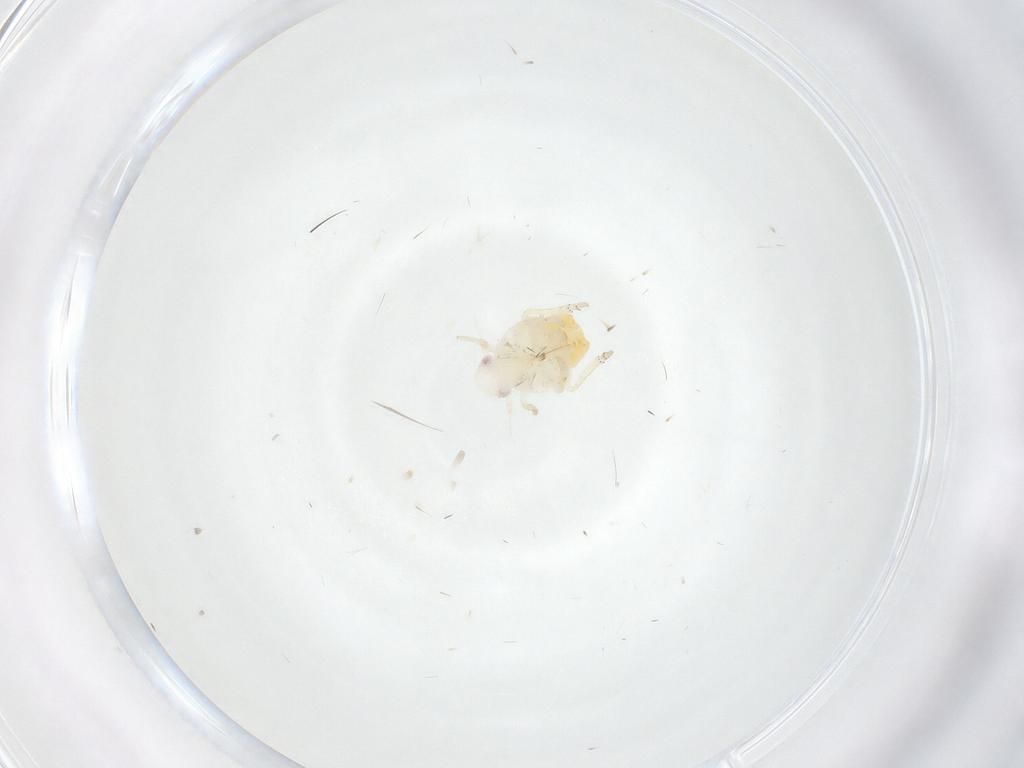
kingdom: Animalia
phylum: Arthropoda
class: Insecta
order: Hemiptera
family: Fulgoroidea_incertae_sedis
